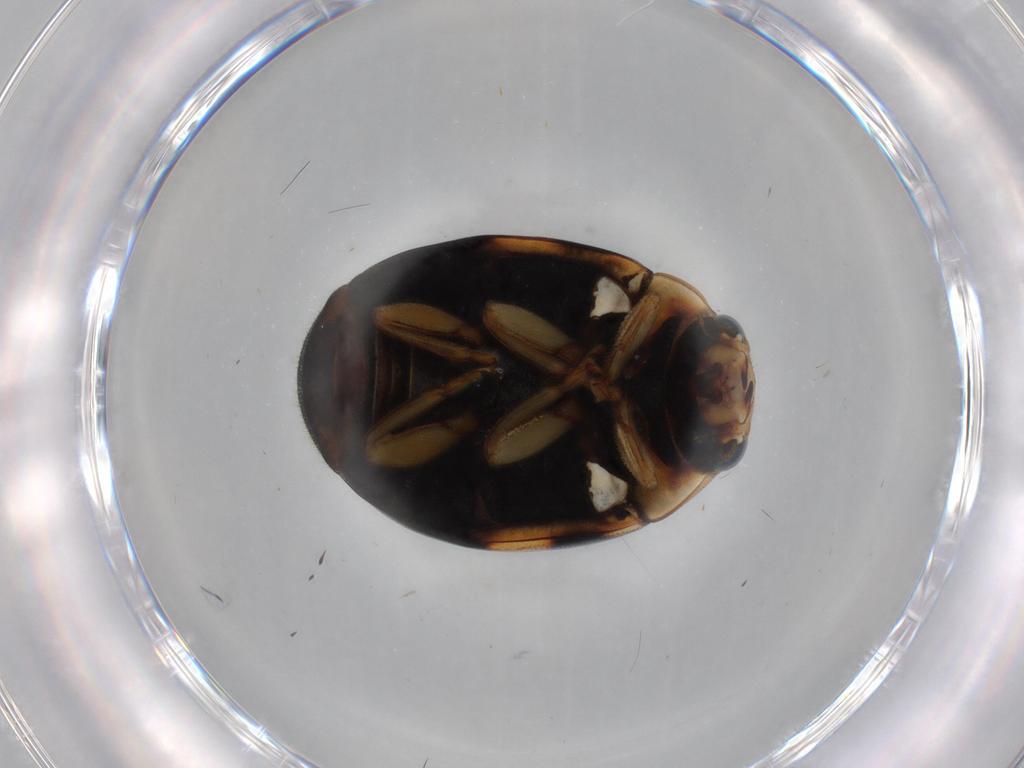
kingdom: Animalia
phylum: Arthropoda
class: Insecta
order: Coleoptera
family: Coccinellidae
